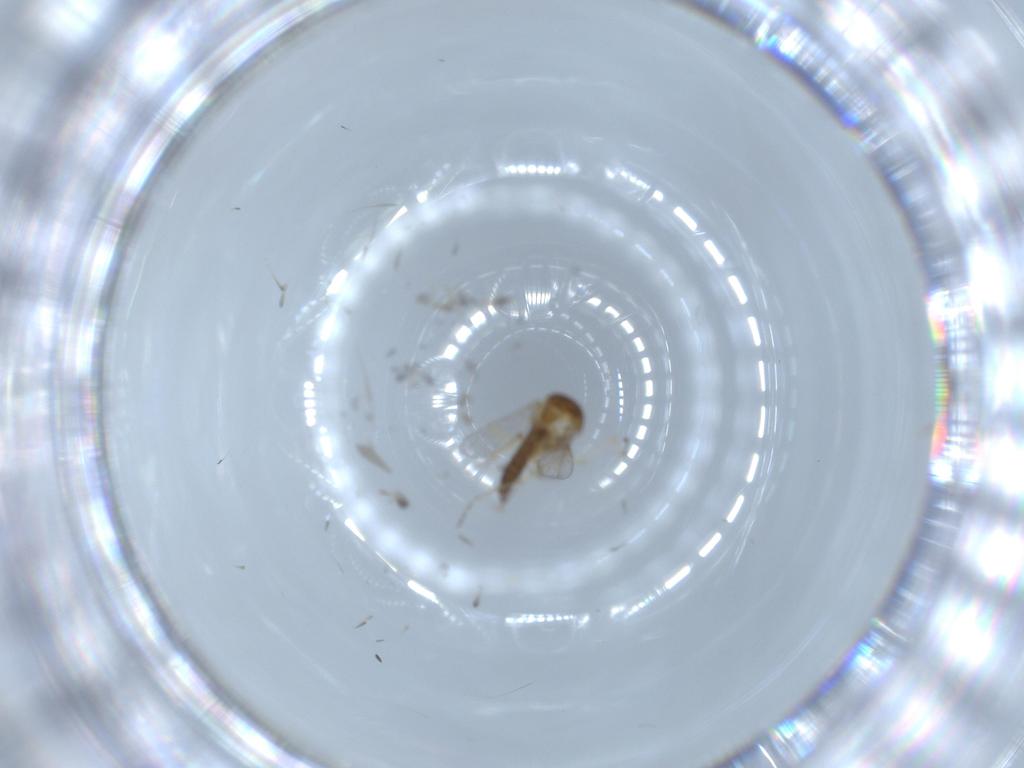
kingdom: Animalia
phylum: Arthropoda
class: Insecta
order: Diptera
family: Ceratopogonidae
